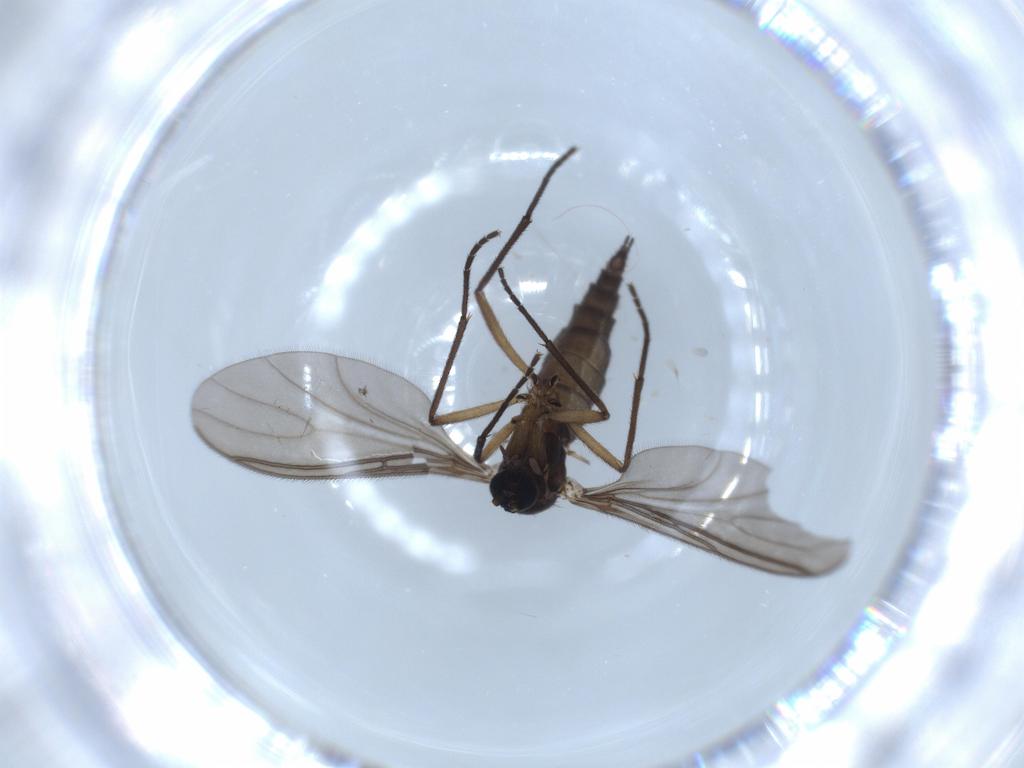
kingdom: Animalia
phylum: Arthropoda
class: Insecta
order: Diptera
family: Sciaridae
